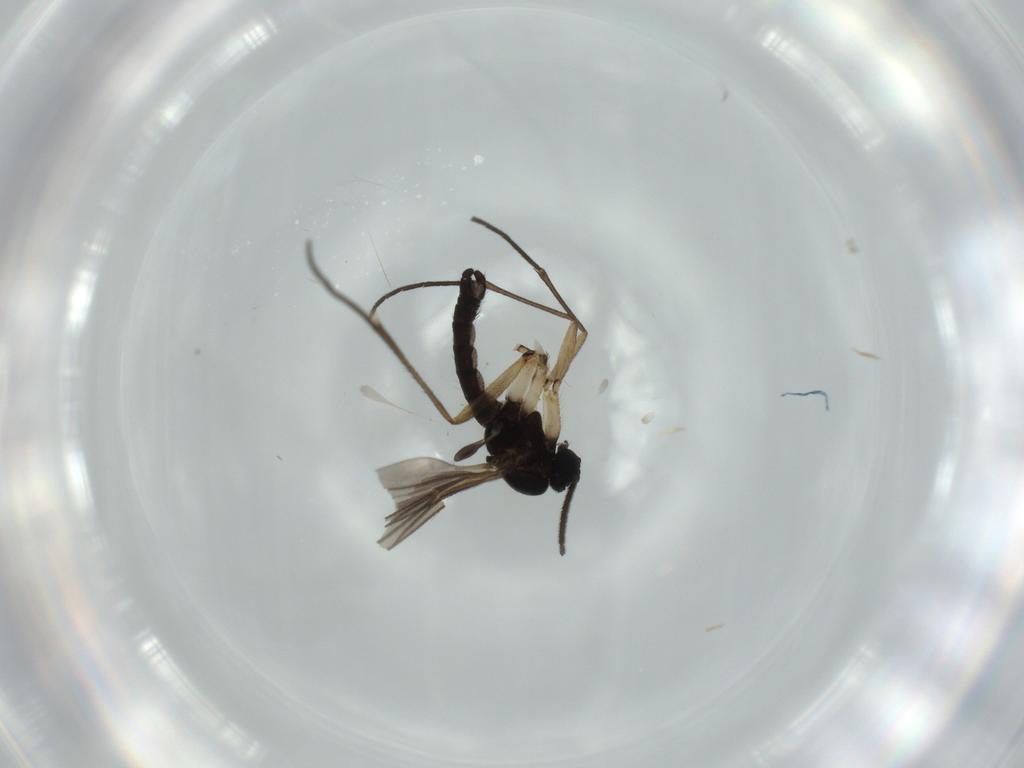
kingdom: Animalia
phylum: Arthropoda
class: Insecta
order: Diptera
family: Sciaridae
